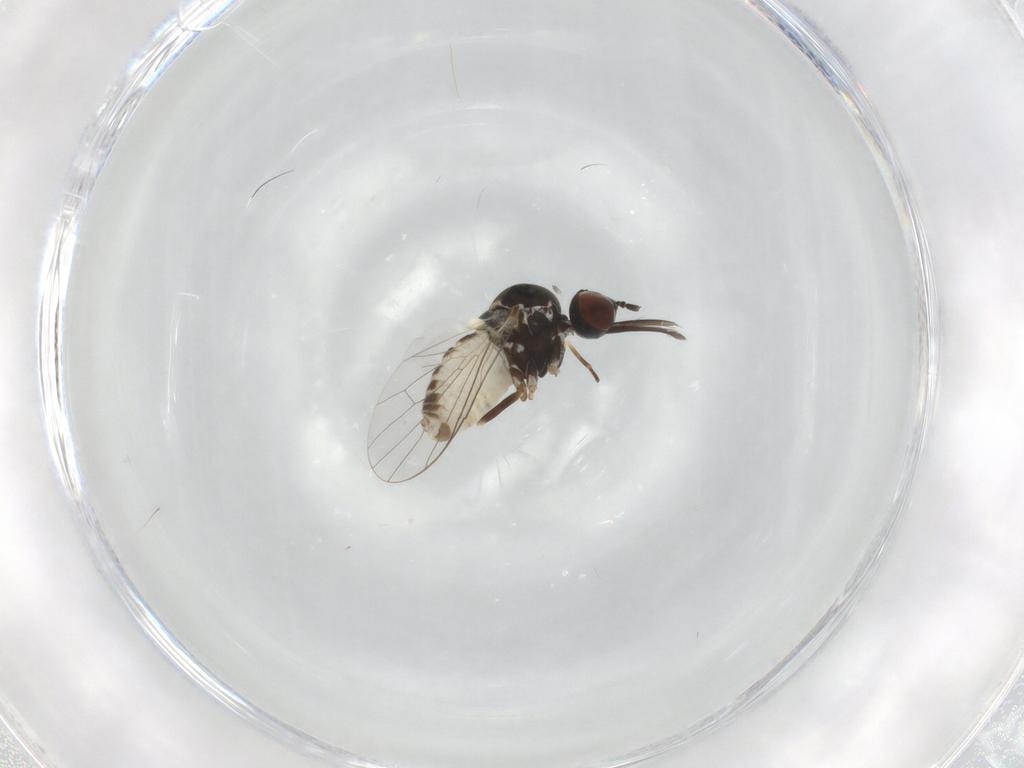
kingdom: Animalia
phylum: Arthropoda
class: Insecta
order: Diptera
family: Bombyliidae
